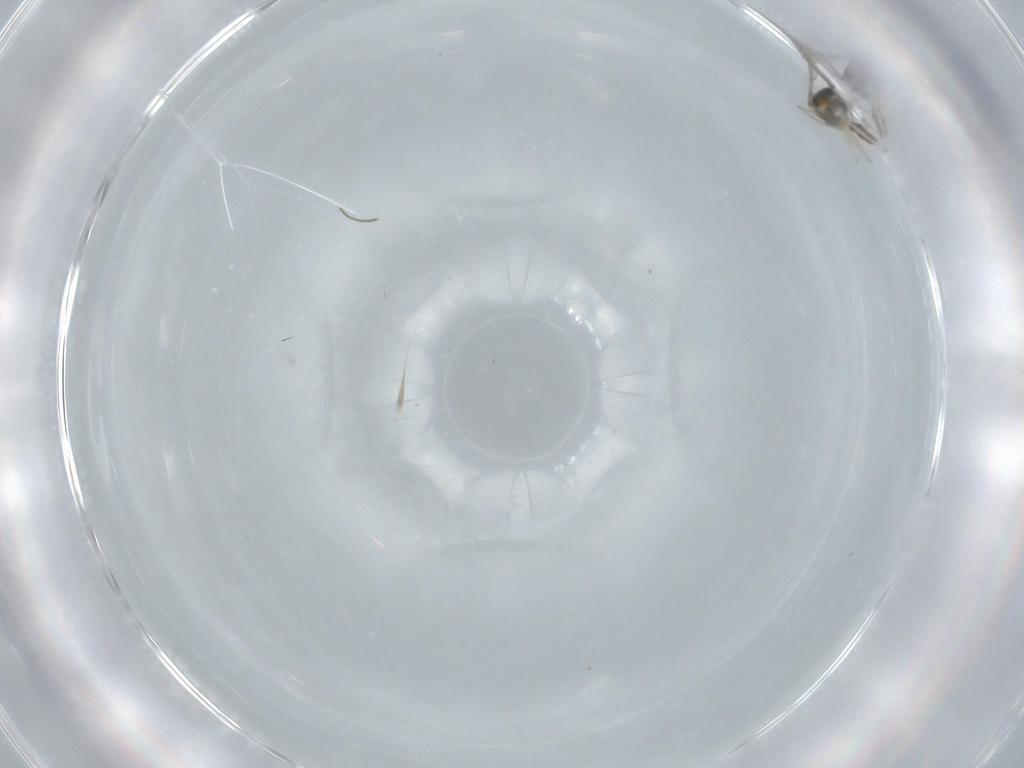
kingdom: Animalia
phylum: Arthropoda
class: Insecta
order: Diptera
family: Cecidomyiidae
